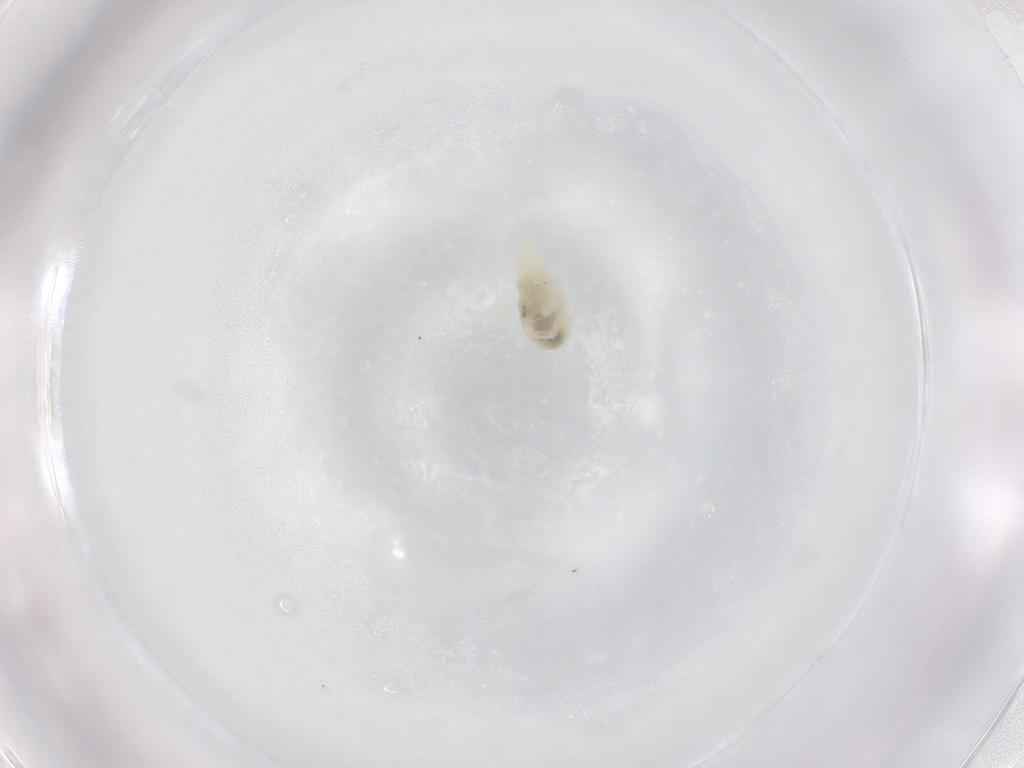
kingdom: Animalia
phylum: Arthropoda
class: Arachnida
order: Trombidiformes
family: Rhagidiidae
